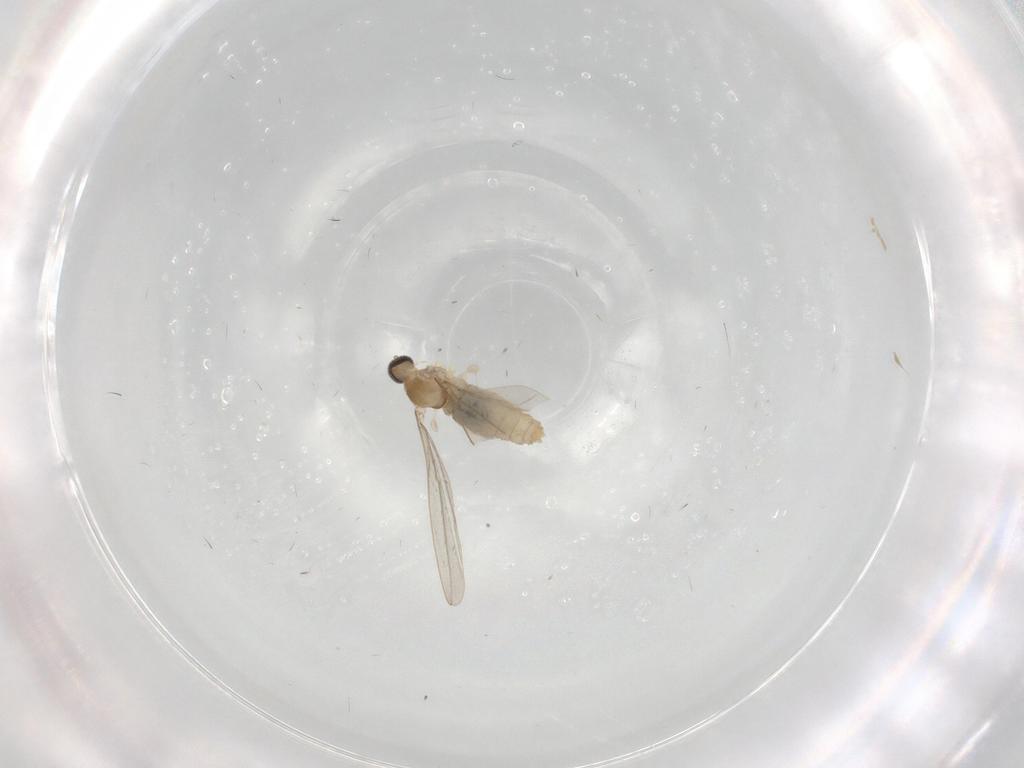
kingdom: Animalia
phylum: Arthropoda
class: Insecta
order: Diptera
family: Cecidomyiidae
